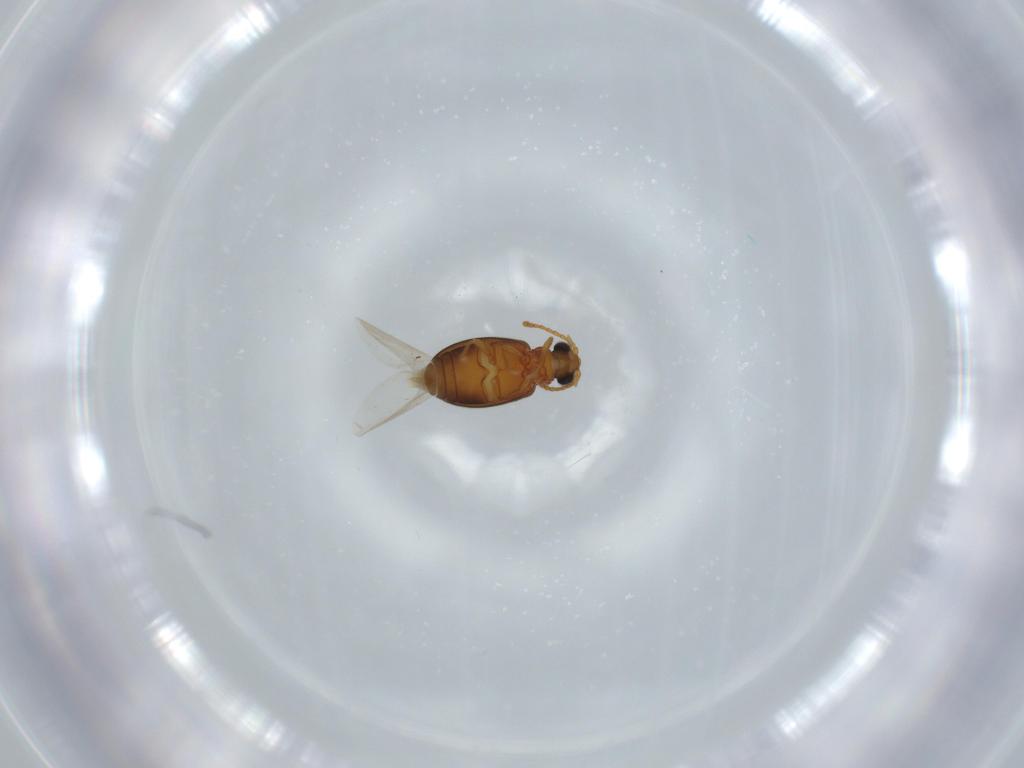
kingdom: Animalia
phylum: Arthropoda
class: Insecta
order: Coleoptera
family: Aderidae
